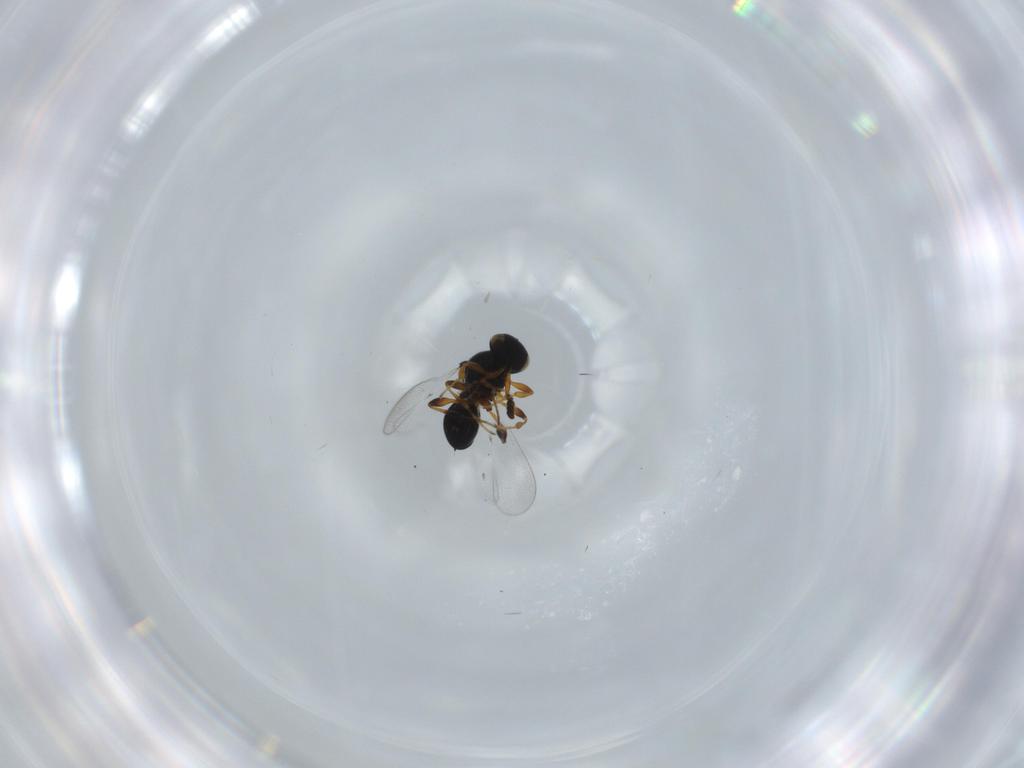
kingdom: Animalia
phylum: Arthropoda
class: Insecta
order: Hymenoptera
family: Platygastridae
